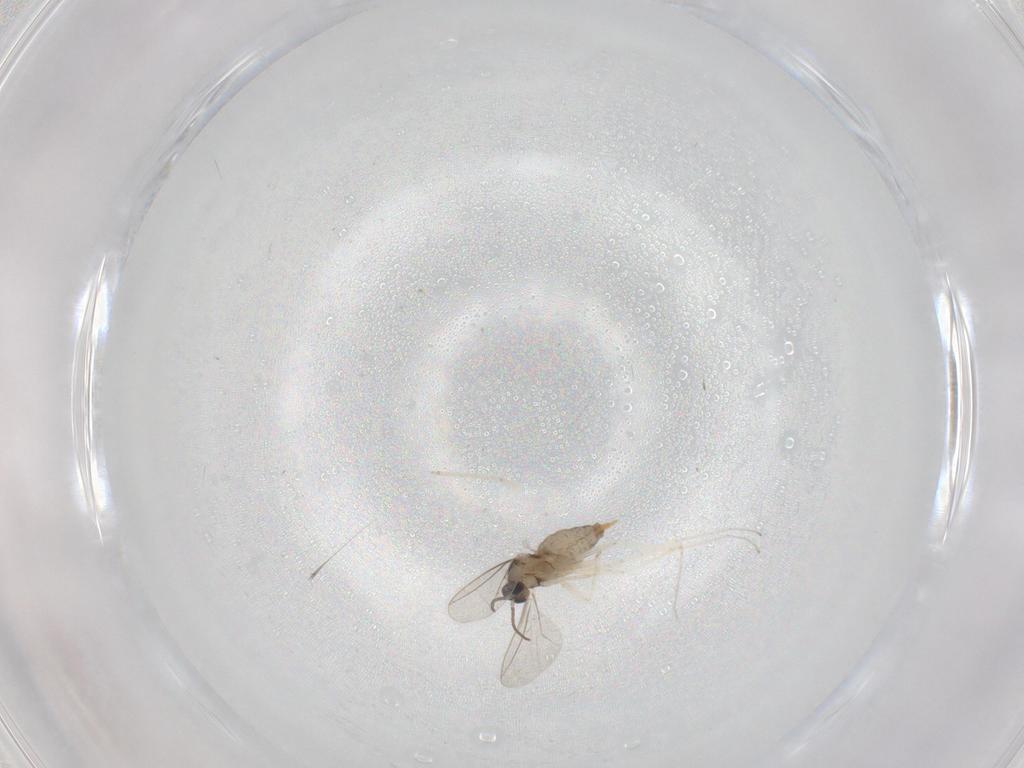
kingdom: Animalia
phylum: Arthropoda
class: Insecta
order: Diptera
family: Cecidomyiidae
